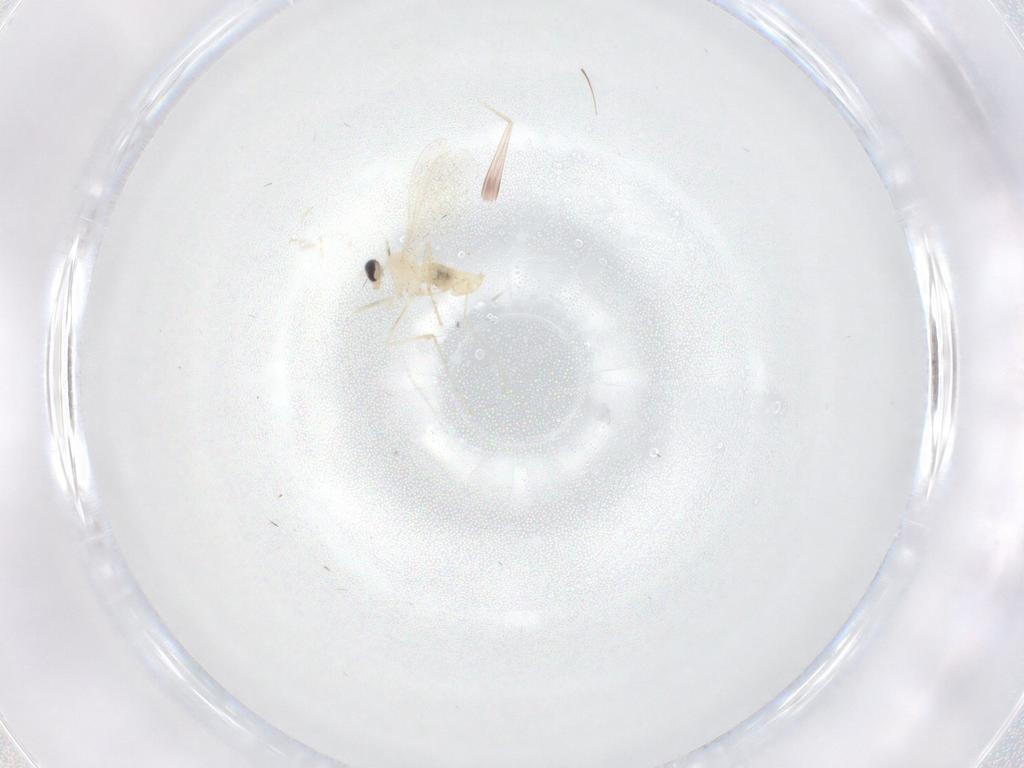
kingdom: Animalia
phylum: Arthropoda
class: Insecta
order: Diptera
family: Cecidomyiidae
